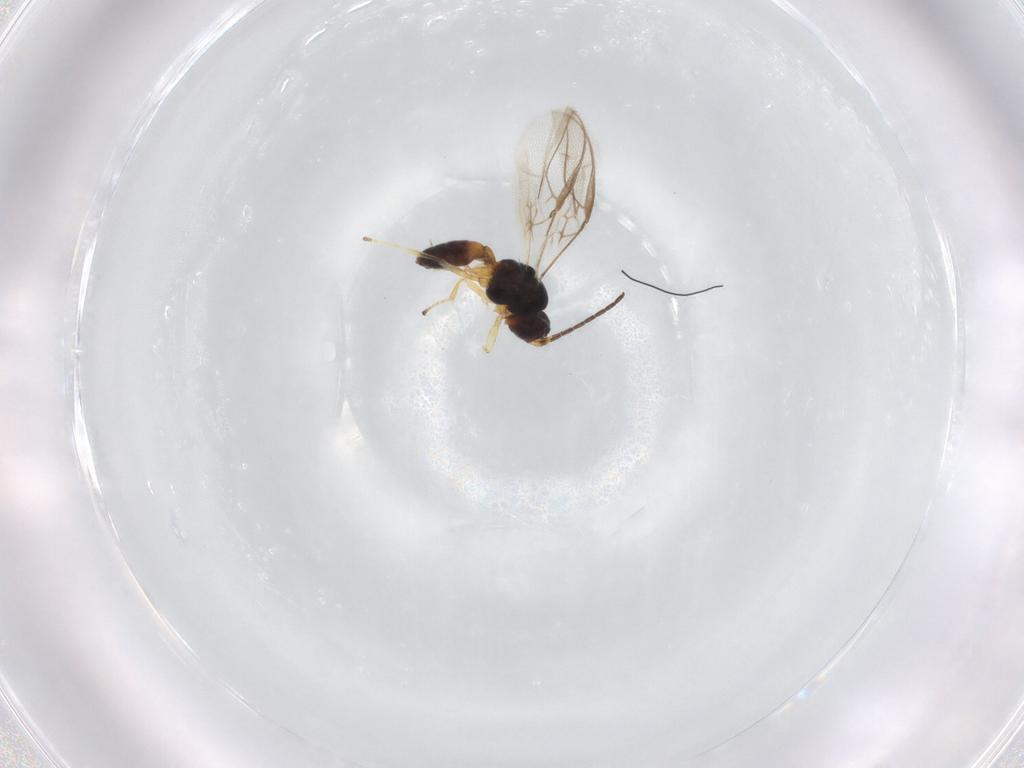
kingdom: Animalia
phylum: Arthropoda
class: Insecta
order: Hymenoptera
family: Braconidae
